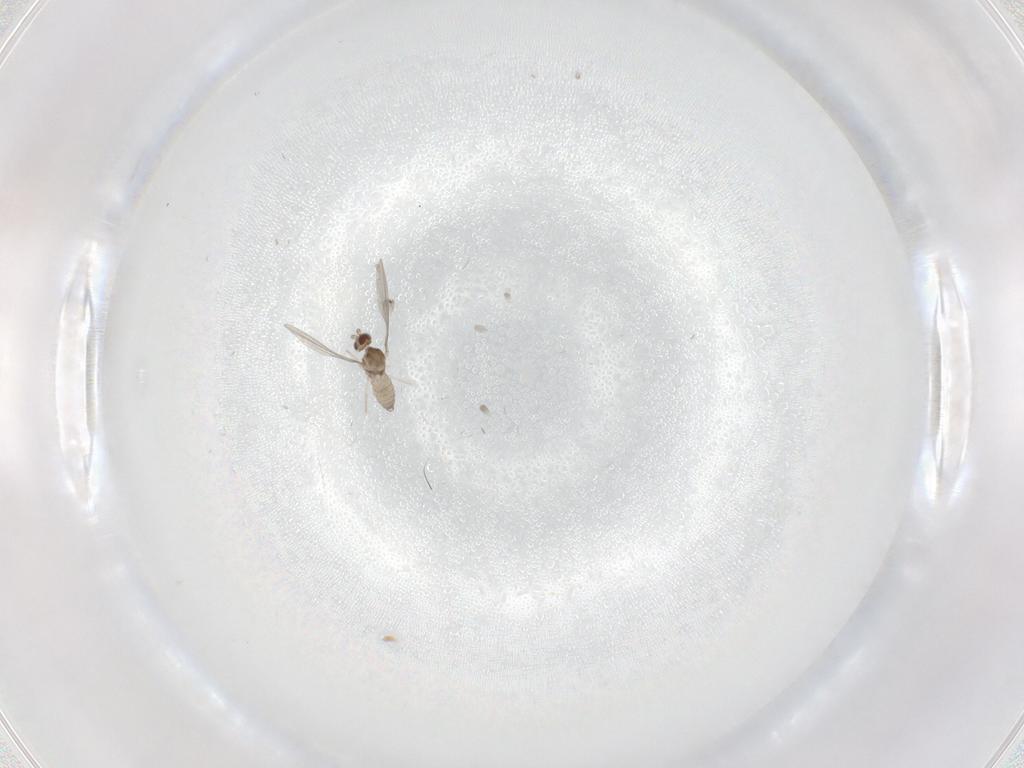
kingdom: Animalia
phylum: Arthropoda
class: Insecta
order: Diptera
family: Cecidomyiidae
